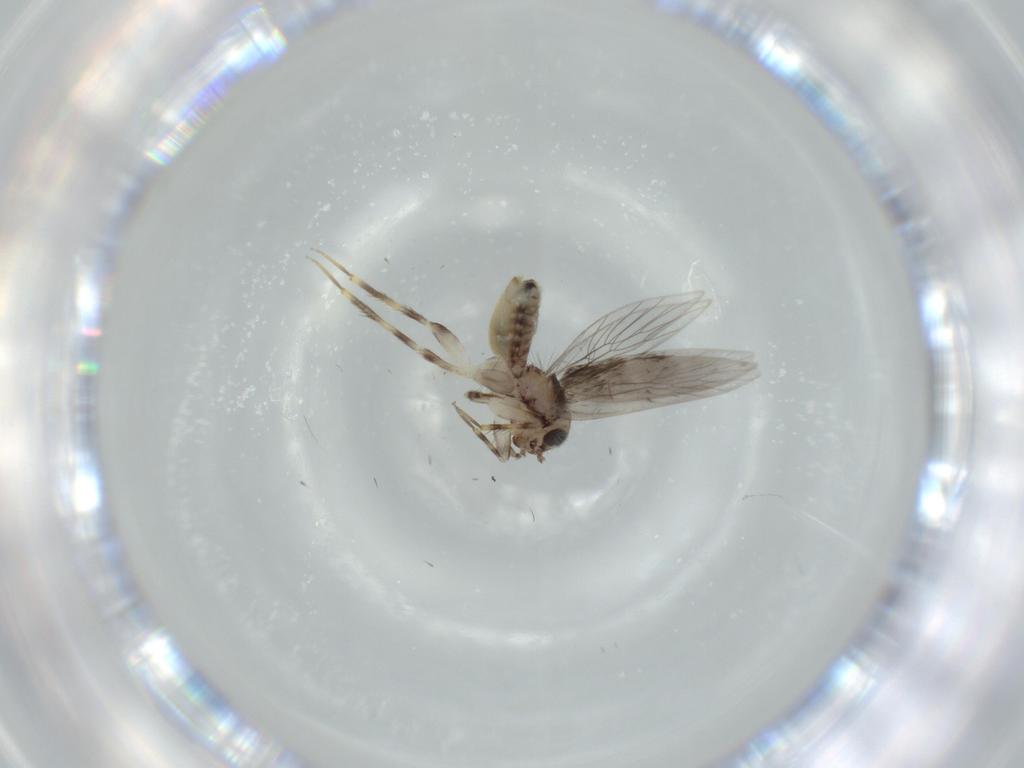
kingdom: Animalia
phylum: Arthropoda
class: Insecta
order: Psocodea
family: Lepidopsocidae
